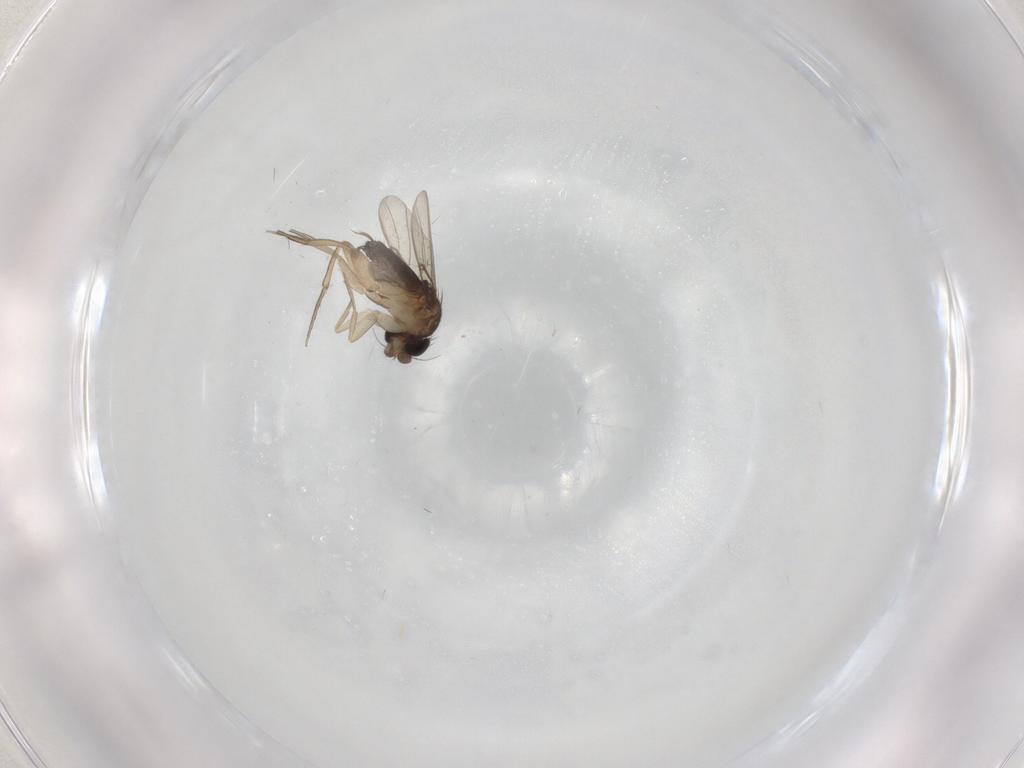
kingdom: Animalia
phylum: Arthropoda
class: Insecta
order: Diptera
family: Phoridae
